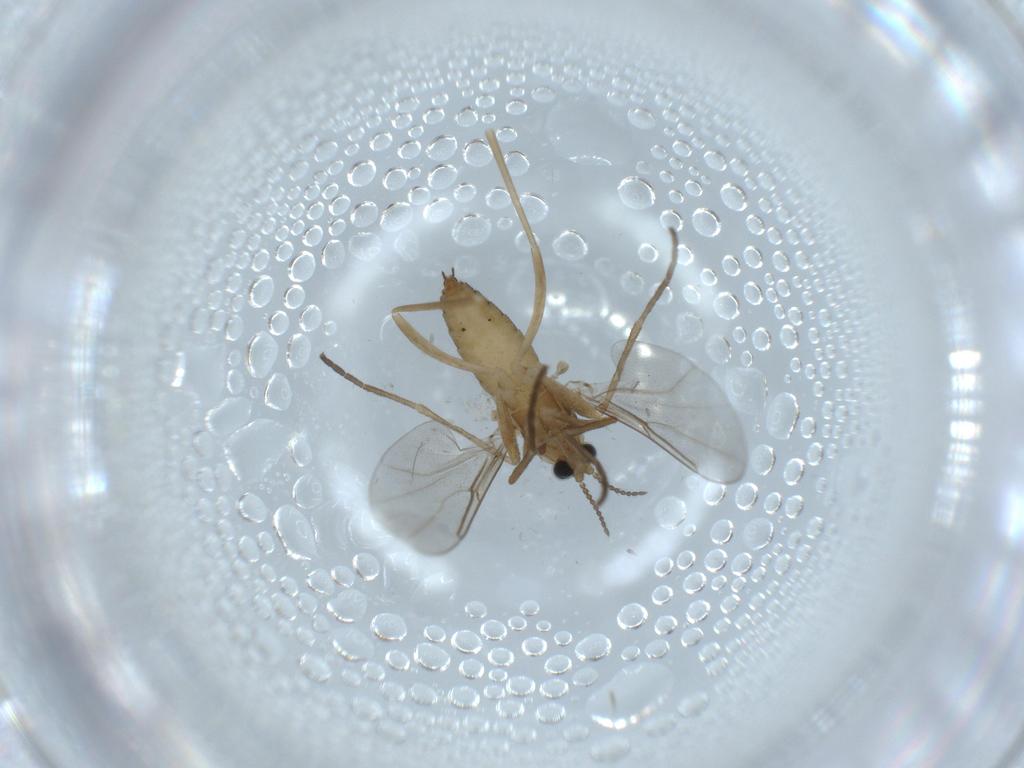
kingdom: Animalia
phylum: Arthropoda
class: Insecta
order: Diptera
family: Cecidomyiidae
